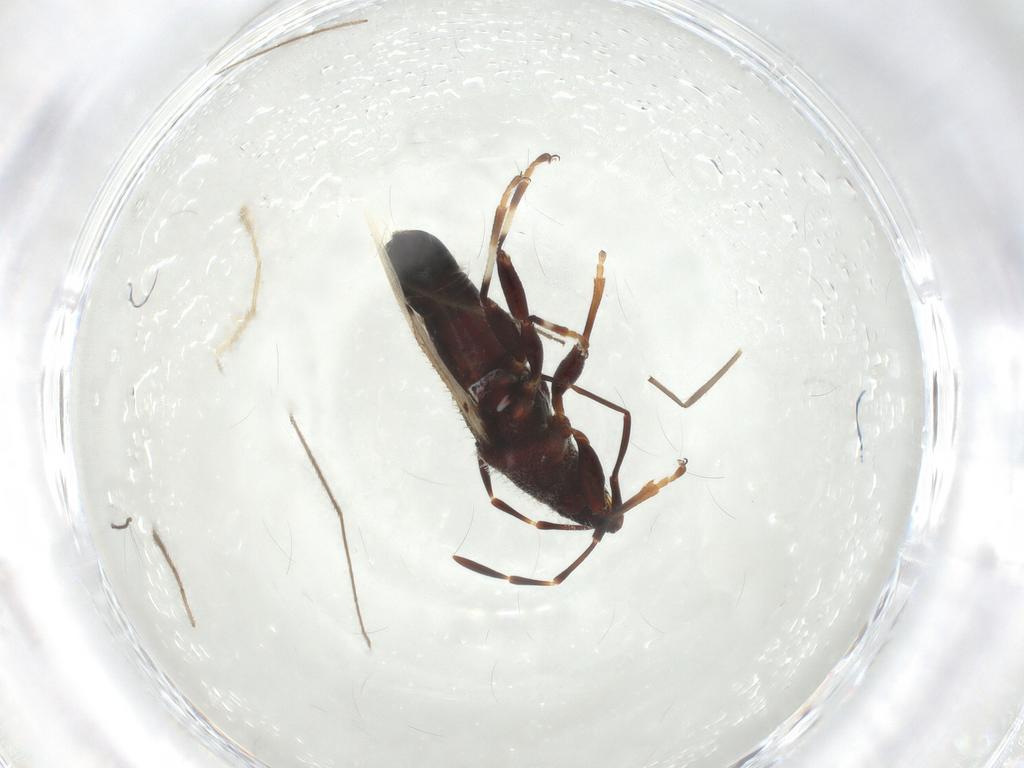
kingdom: Animalia
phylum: Arthropoda
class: Insecta
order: Hemiptera
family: Oxycarenidae
